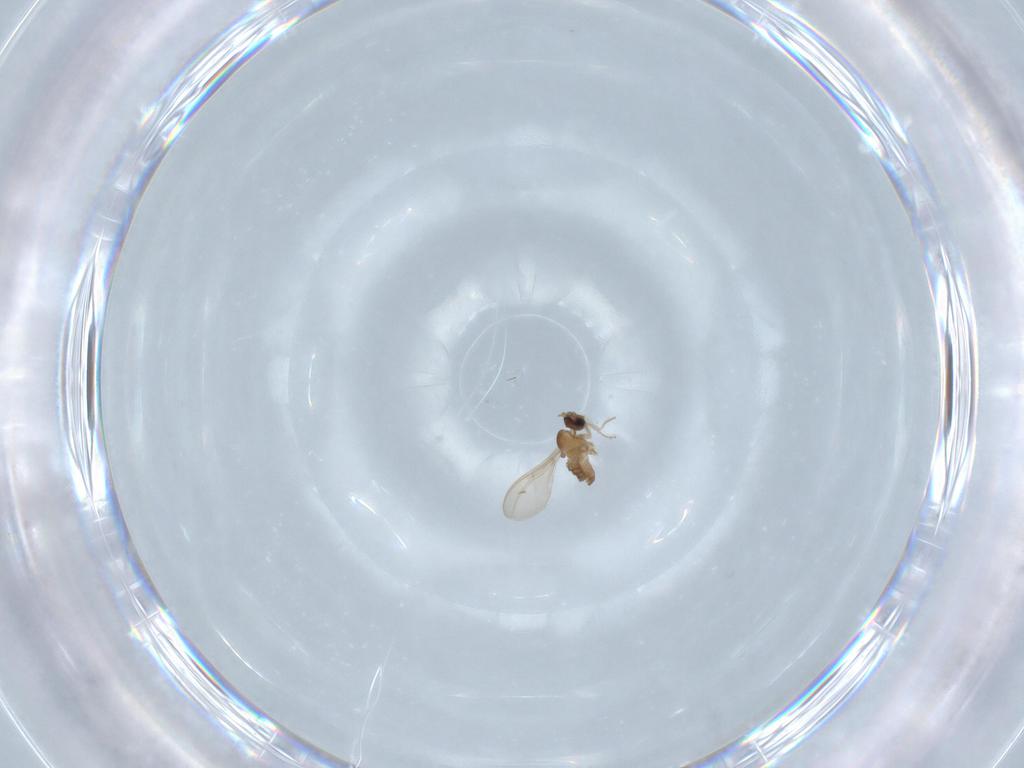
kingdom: Animalia
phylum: Arthropoda
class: Insecta
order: Diptera
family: Cecidomyiidae
